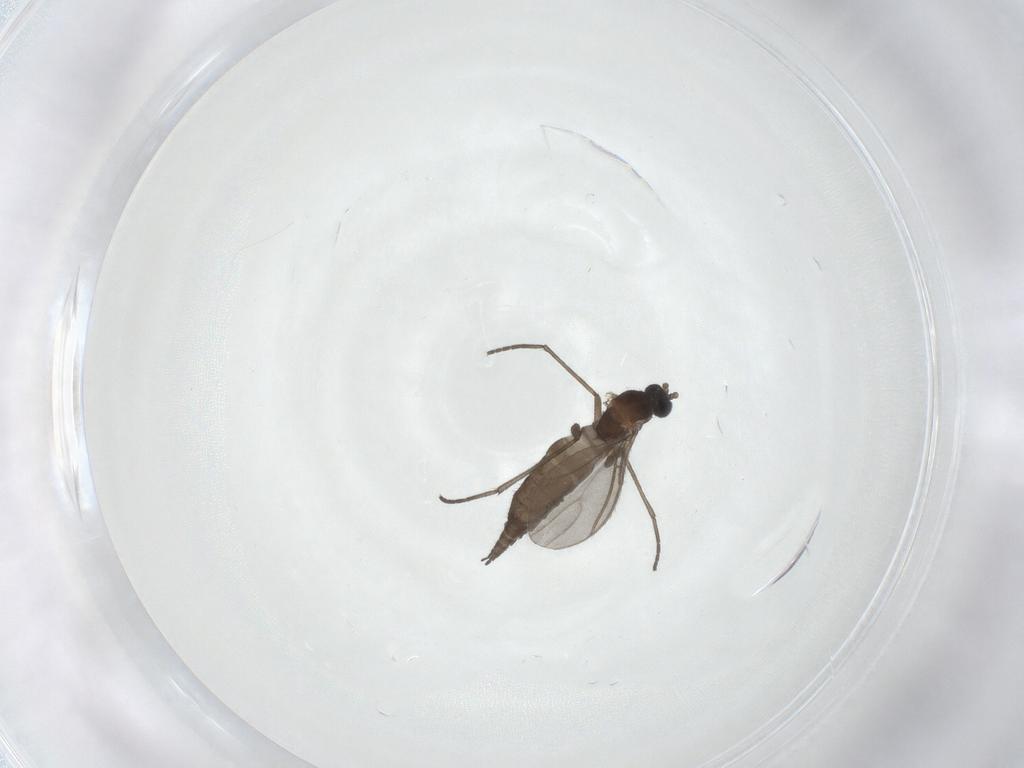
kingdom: Animalia
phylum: Arthropoda
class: Insecta
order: Diptera
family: Sciaridae
